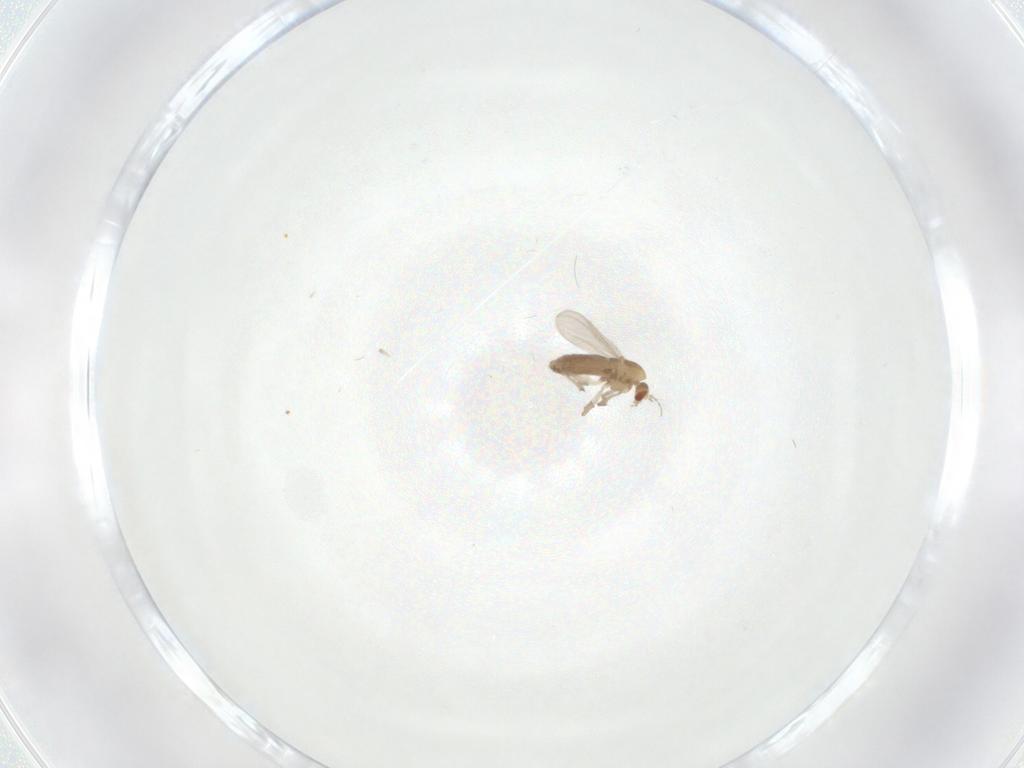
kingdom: Animalia
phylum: Arthropoda
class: Insecta
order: Diptera
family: Chironomidae
